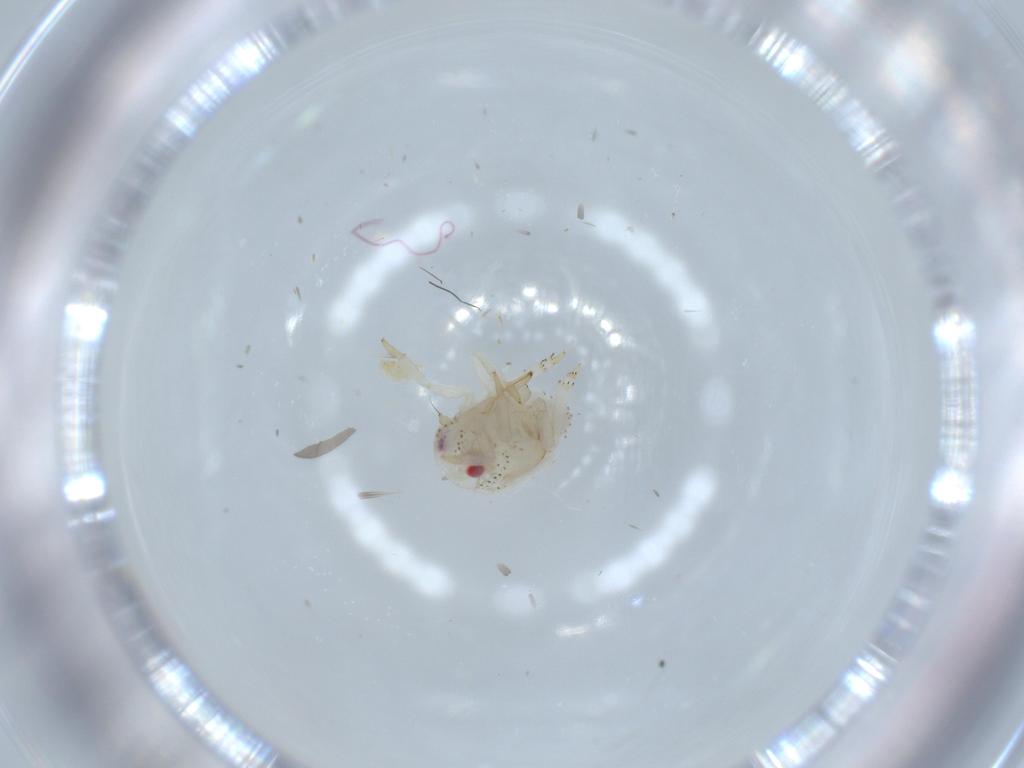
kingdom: Animalia
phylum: Arthropoda
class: Insecta
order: Hemiptera
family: Acanaloniidae
